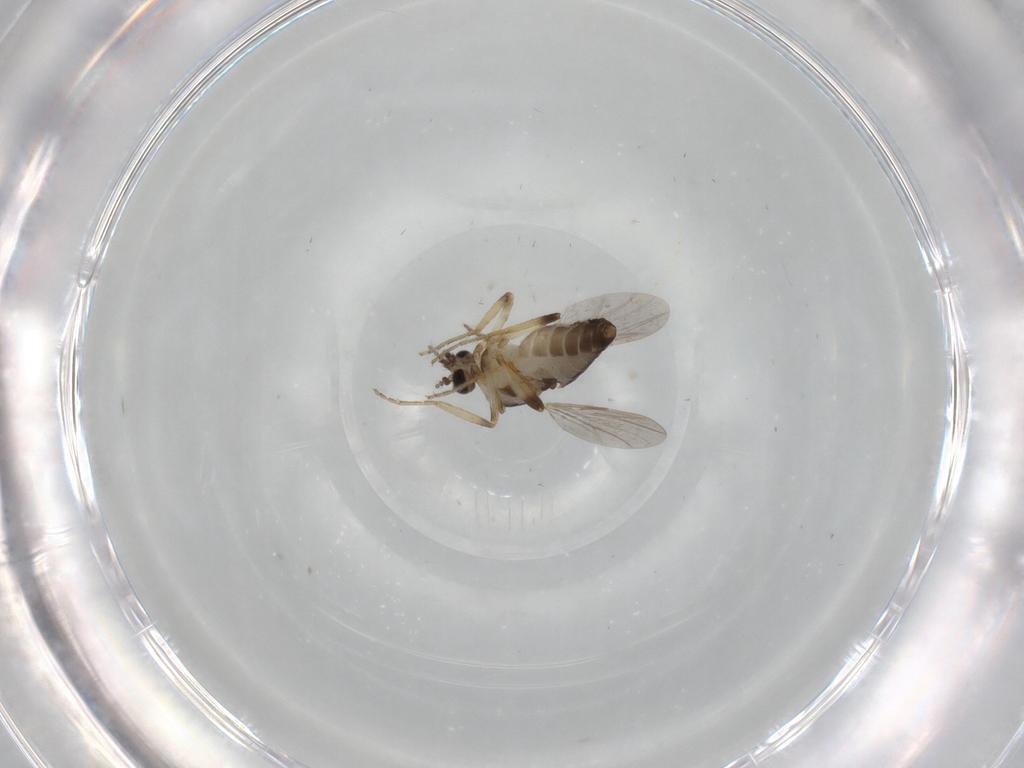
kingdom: Animalia
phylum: Arthropoda
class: Insecta
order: Diptera
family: Ceratopogonidae
